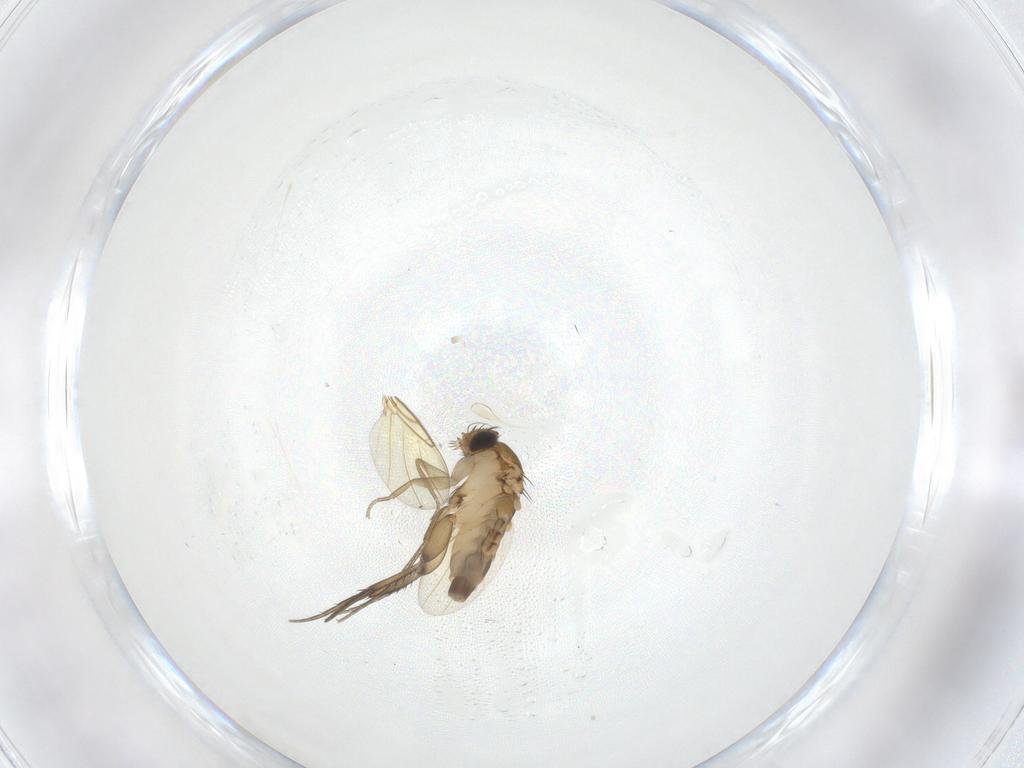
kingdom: Animalia
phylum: Arthropoda
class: Insecta
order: Diptera
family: Phoridae
